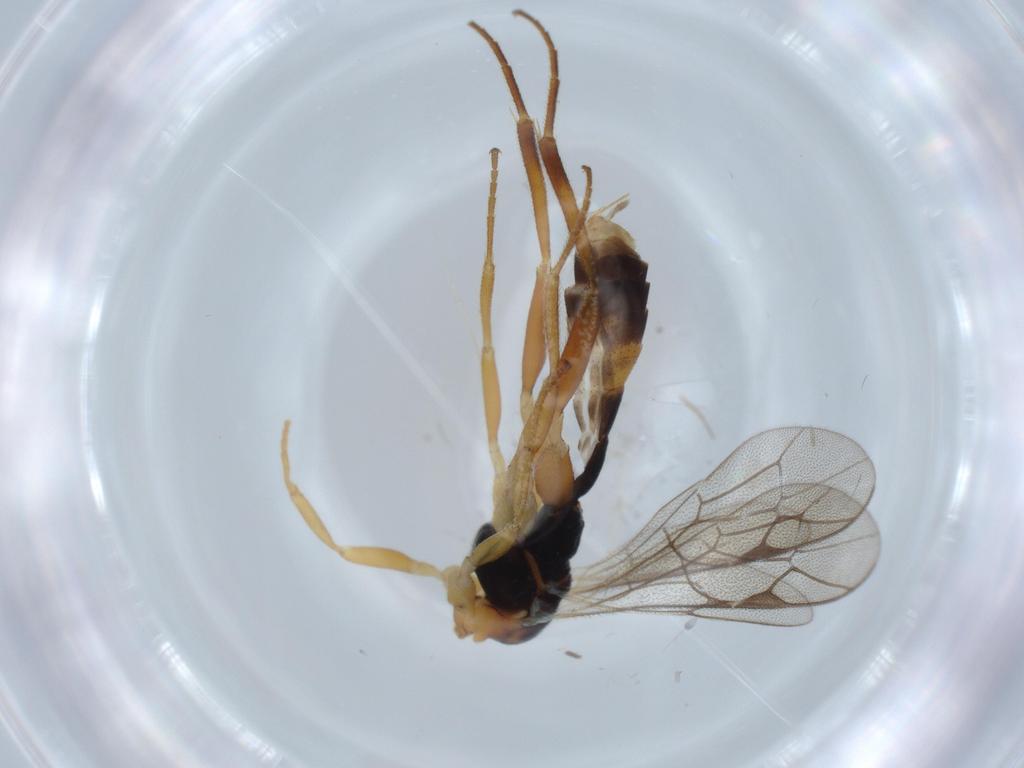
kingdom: Animalia
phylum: Arthropoda
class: Insecta
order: Hymenoptera
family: Ichneumonidae
